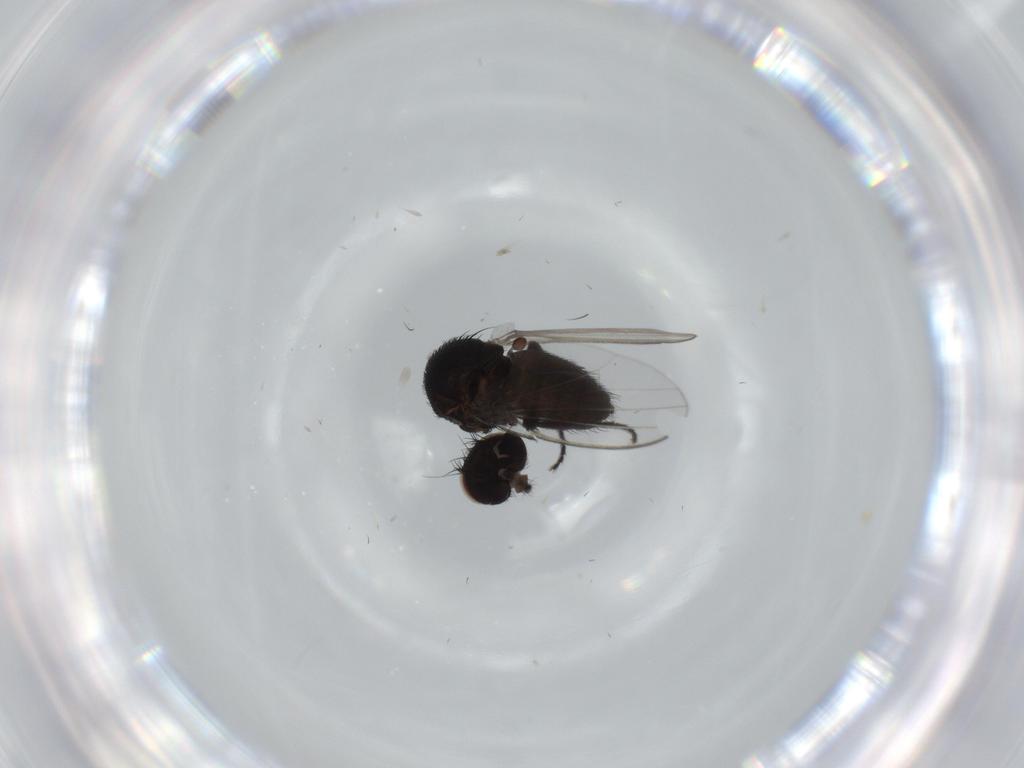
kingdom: Animalia
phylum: Arthropoda
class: Insecta
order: Diptera
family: Milichiidae
